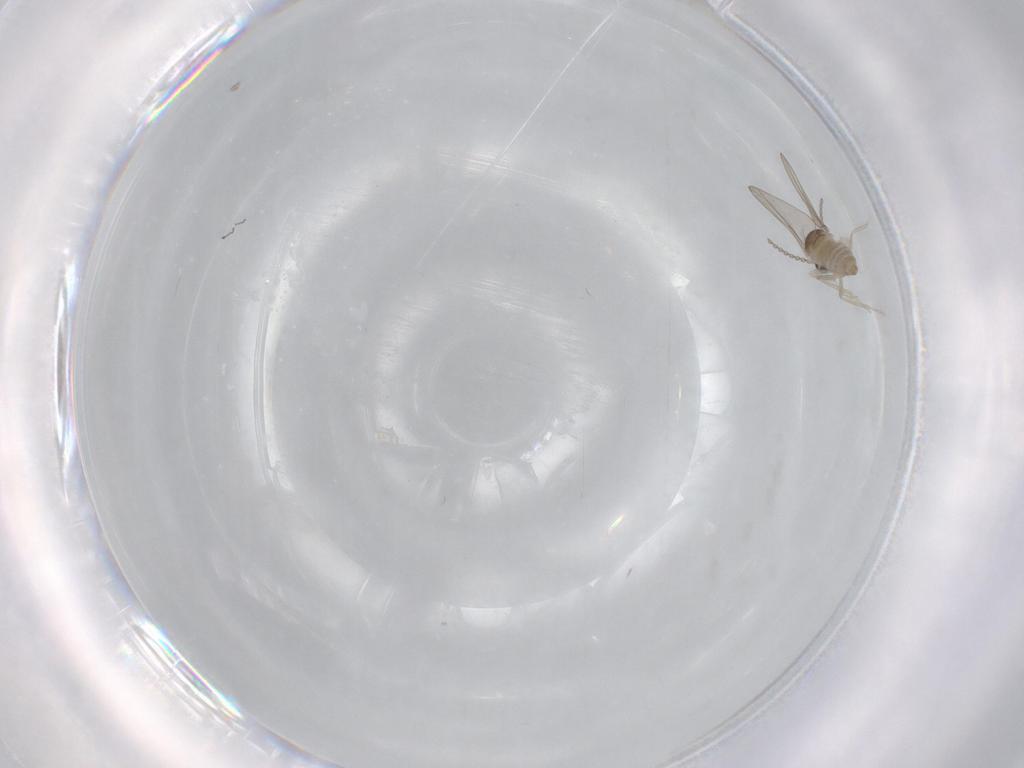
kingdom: Animalia
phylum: Arthropoda
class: Insecta
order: Diptera
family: Cecidomyiidae
